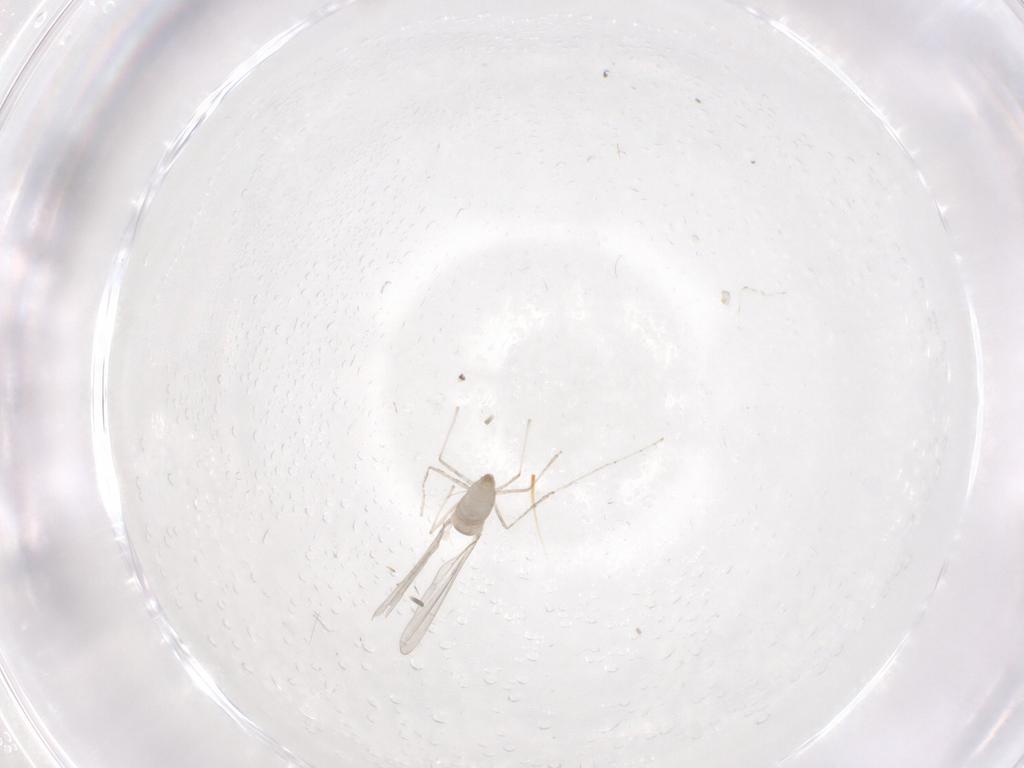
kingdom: Animalia
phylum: Arthropoda
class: Insecta
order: Diptera
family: Cecidomyiidae
